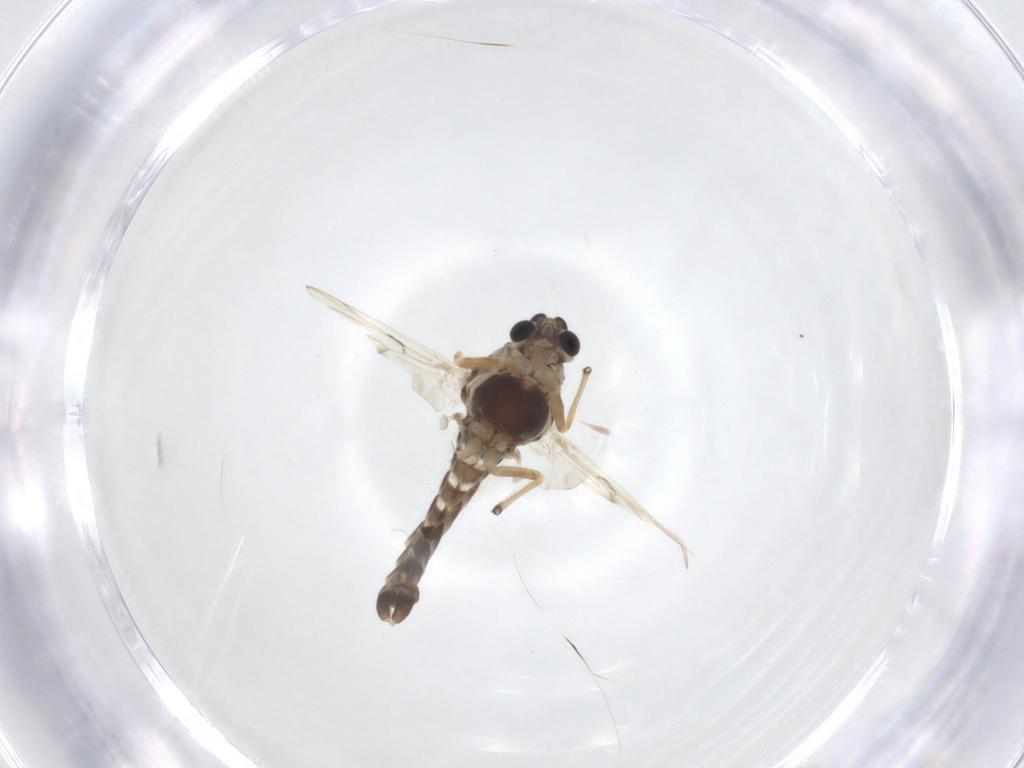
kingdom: Animalia
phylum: Arthropoda
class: Insecta
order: Diptera
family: Chironomidae
